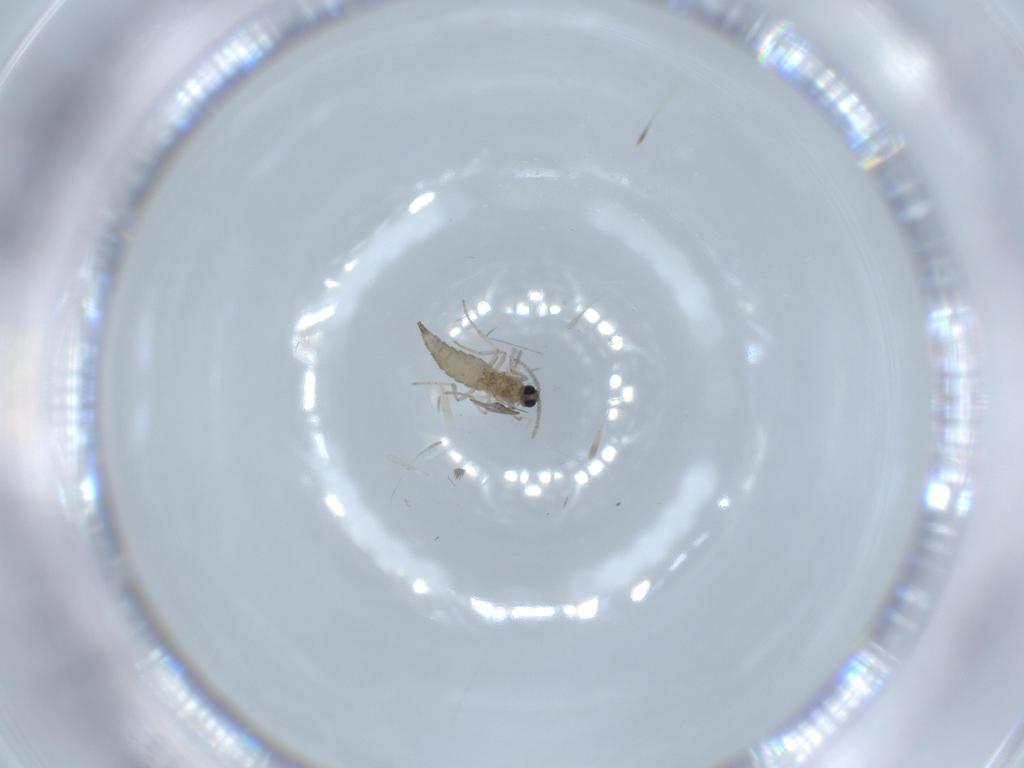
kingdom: Animalia
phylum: Arthropoda
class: Insecta
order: Diptera
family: Cecidomyiidae
